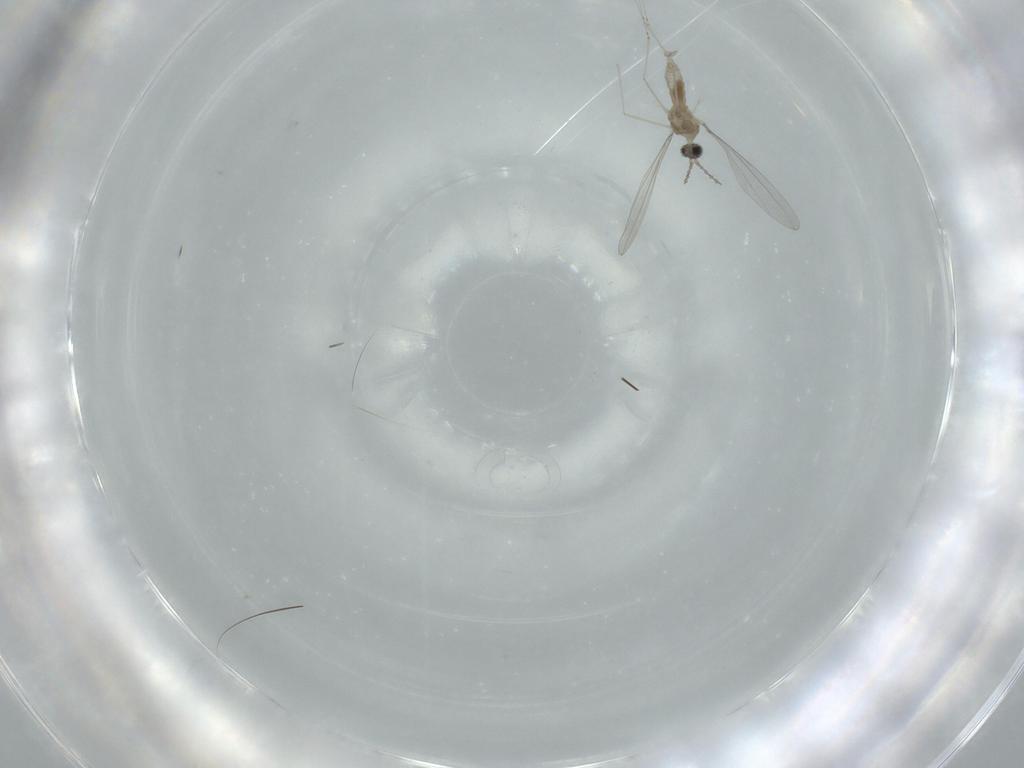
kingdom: Animalia
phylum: Arthropoda
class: Insecta
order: Diptera
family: Cecidomyiidae
